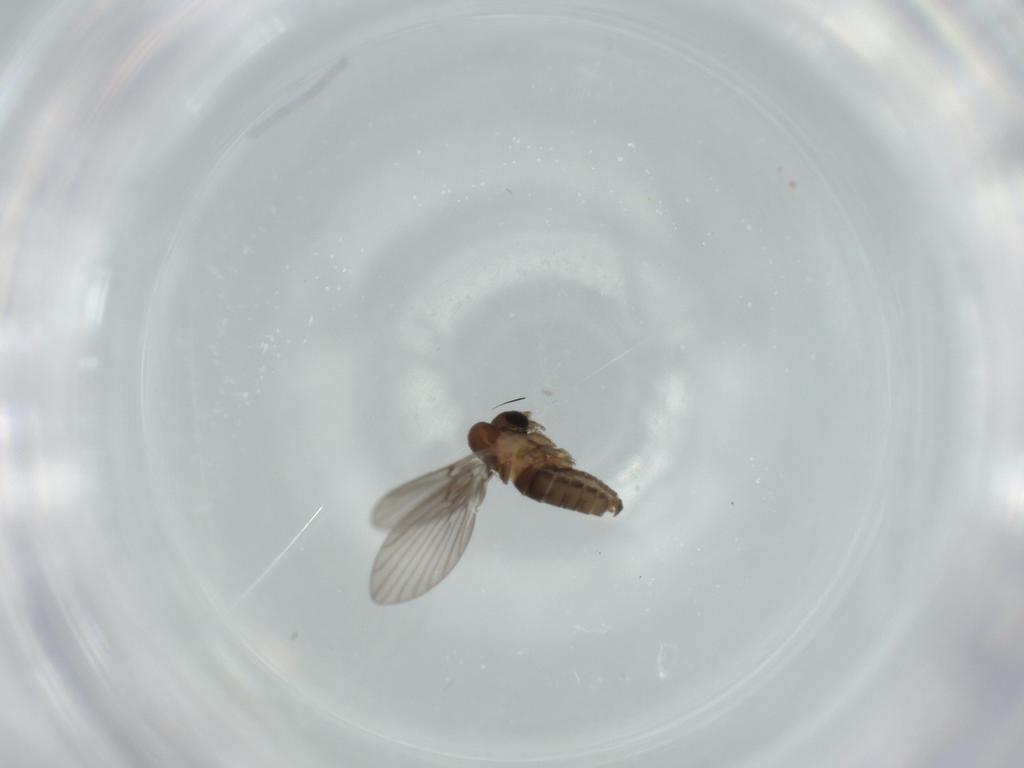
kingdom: Animalia
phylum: Arthropoda
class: Insecta
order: Diptera
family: Psychodidae
